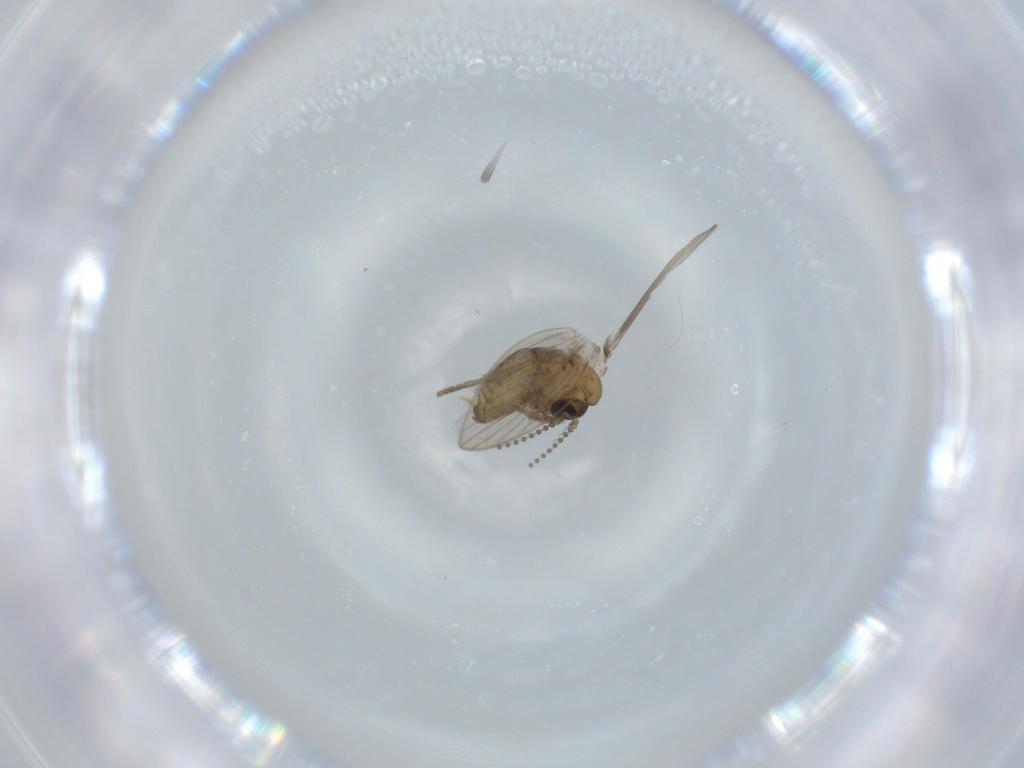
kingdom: Animalia
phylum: Arthropoda
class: Insecta
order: Diptera
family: Psychodidae
